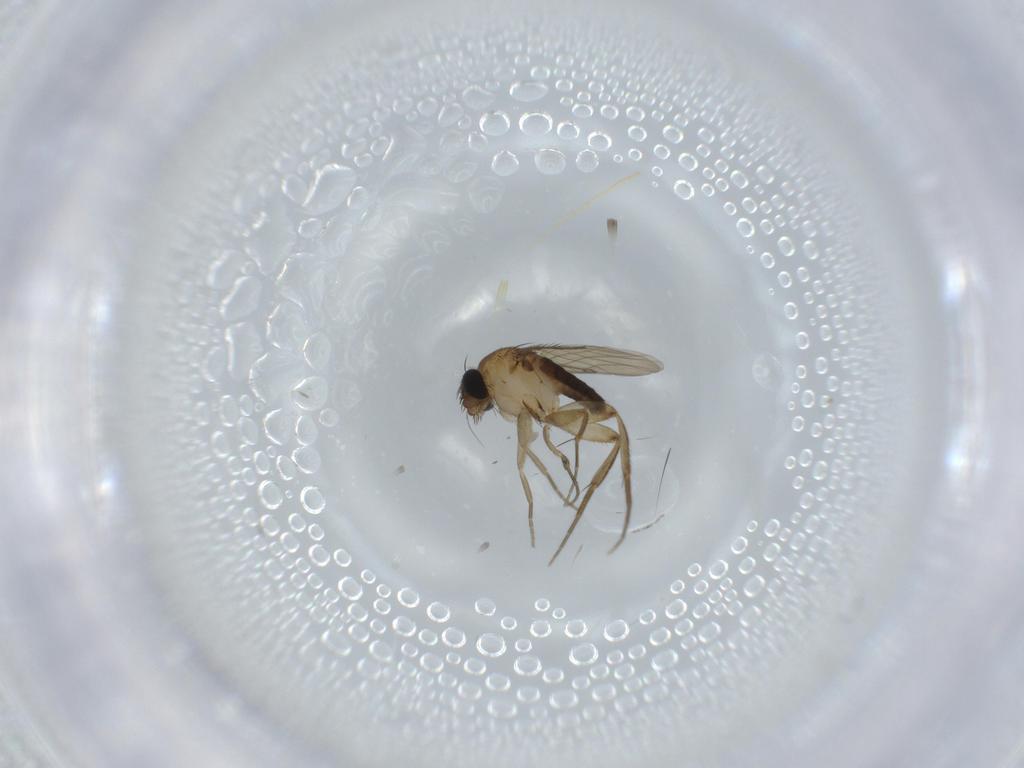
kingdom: Animalia
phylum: Arthropoda
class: Insecta
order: Diptera
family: Phoridae
